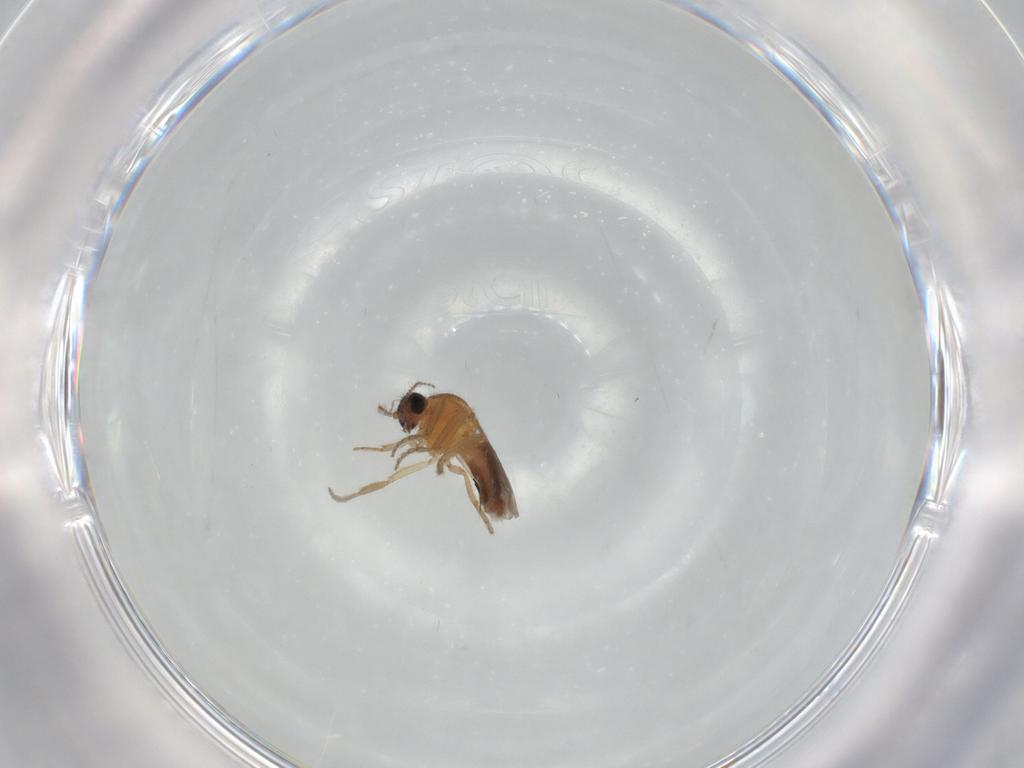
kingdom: Animalia
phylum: Arthropoda
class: Insecta
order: Diptera
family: Ceratopogonidae
